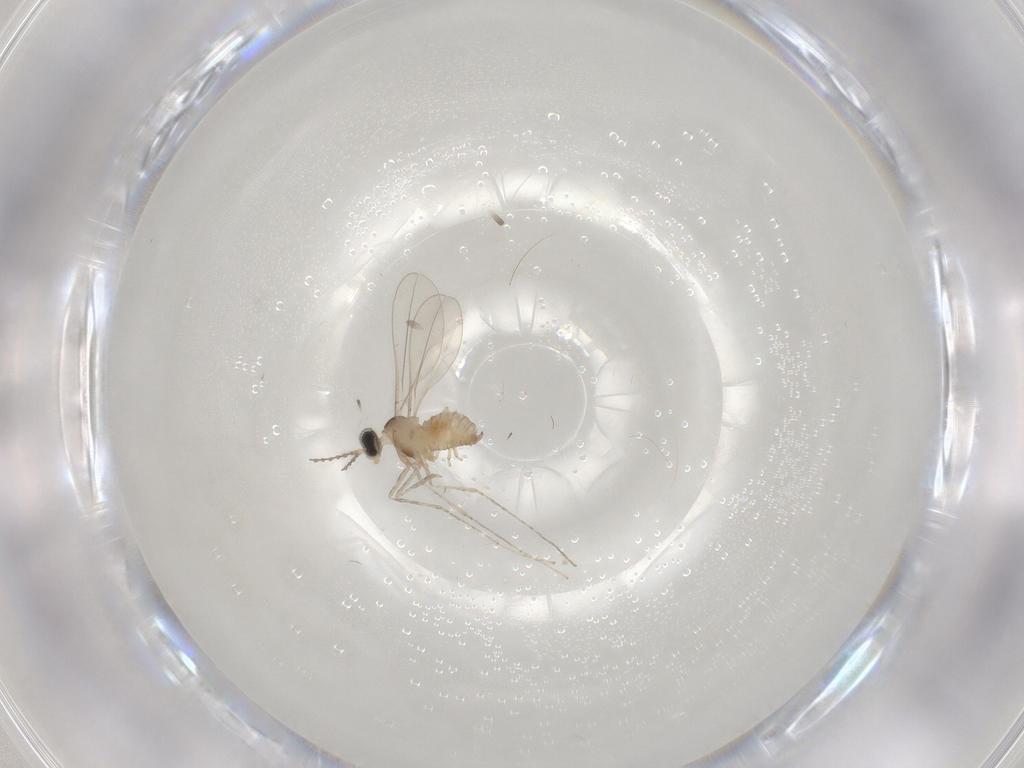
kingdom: Animalia
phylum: Arthropoda
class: Insecta
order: Diptera
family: Cecidomyiidae
